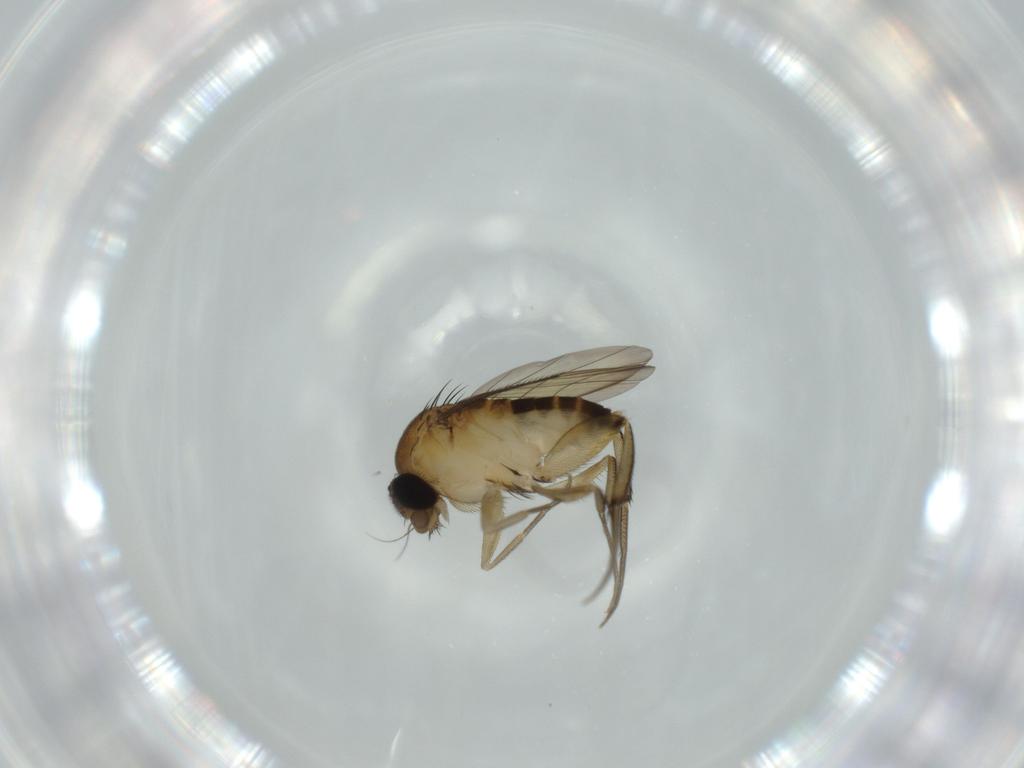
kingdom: Animalia
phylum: Arthropoda
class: Insecta
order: Diptera
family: Phoridae
